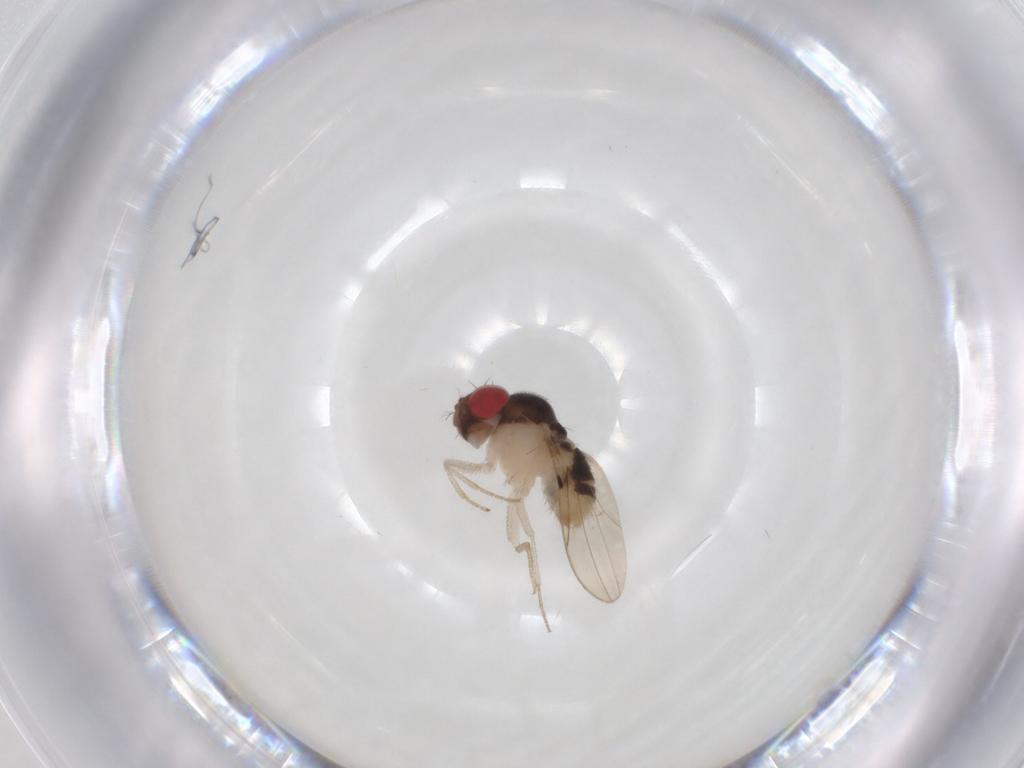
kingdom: Animalia
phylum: Arthropoda
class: Insecta
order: Diptera
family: Drosophilidae
